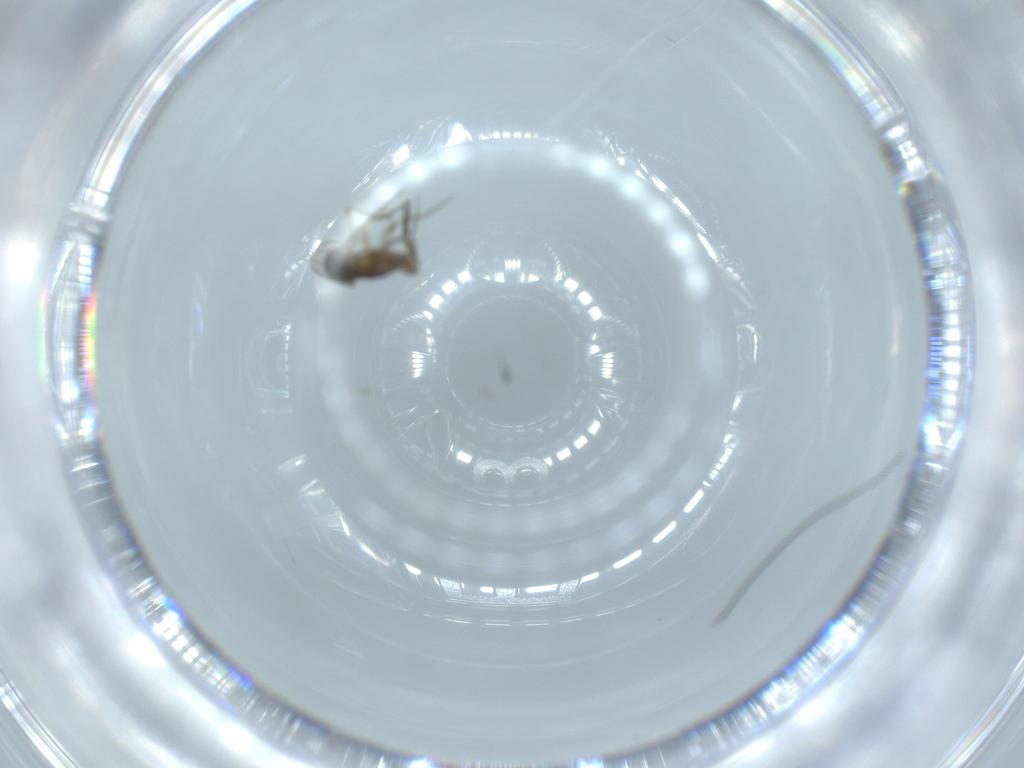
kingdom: Animalia
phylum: Arthropoda
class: Insecta
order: Diptera
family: Phoridae
